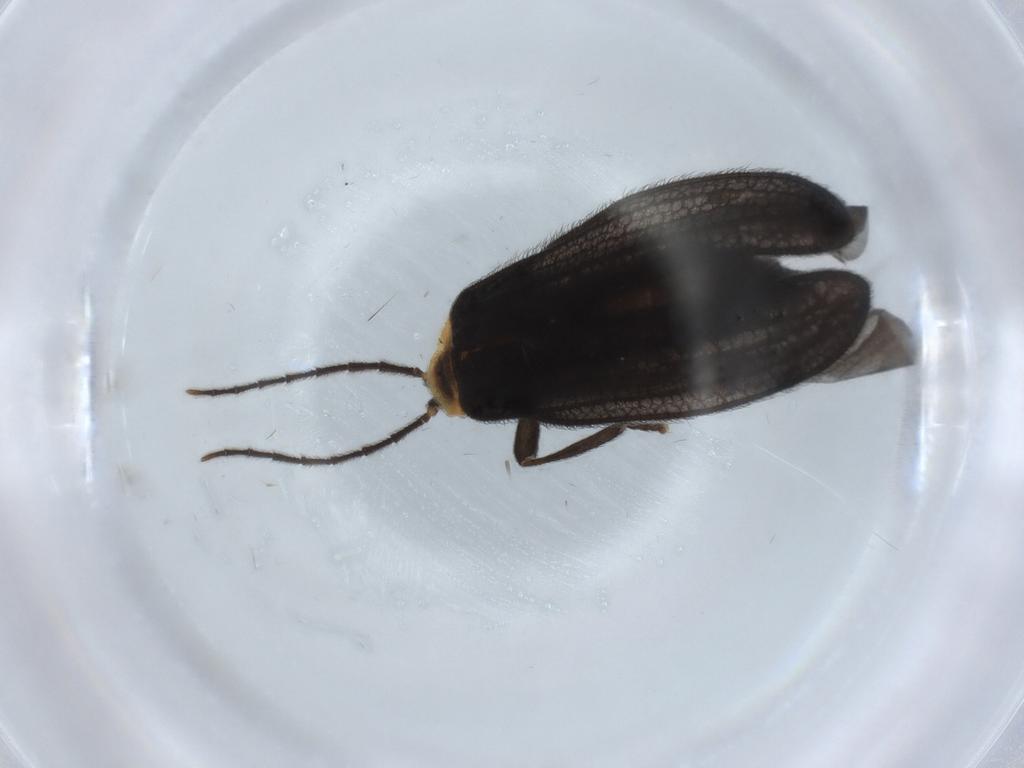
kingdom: Animalia
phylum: Arthropoda
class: Insecta
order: Coleoptera
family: Lycidae
